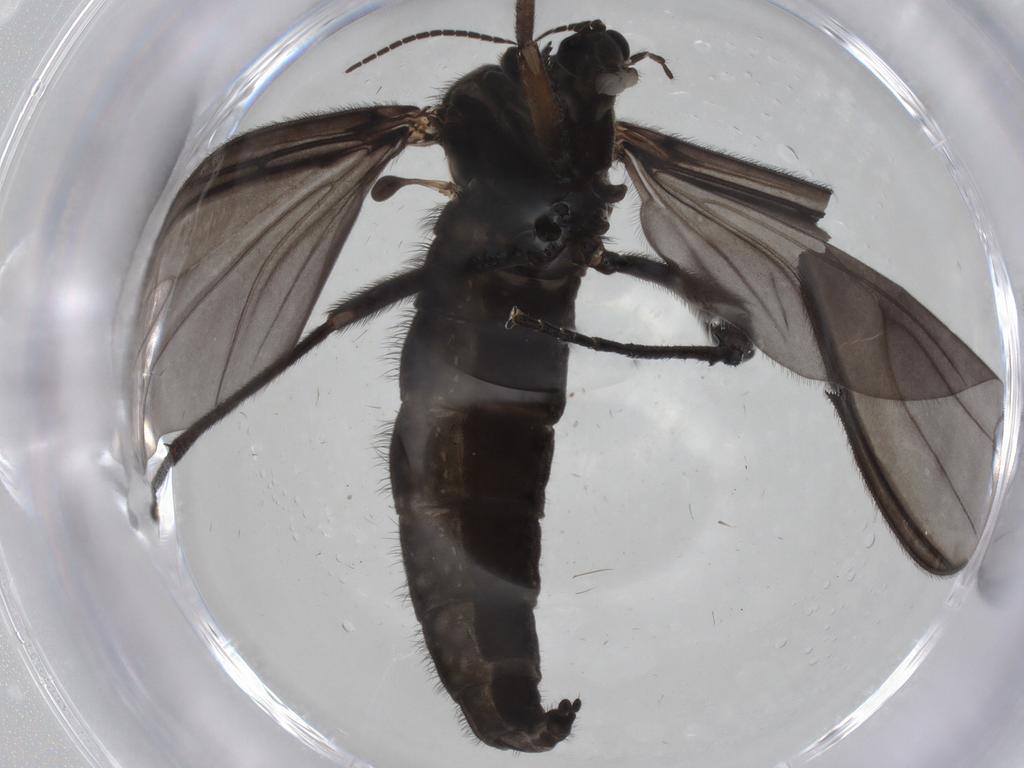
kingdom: Animalia
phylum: Arthropoda
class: Insecta
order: Diptera
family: Sciaridae
